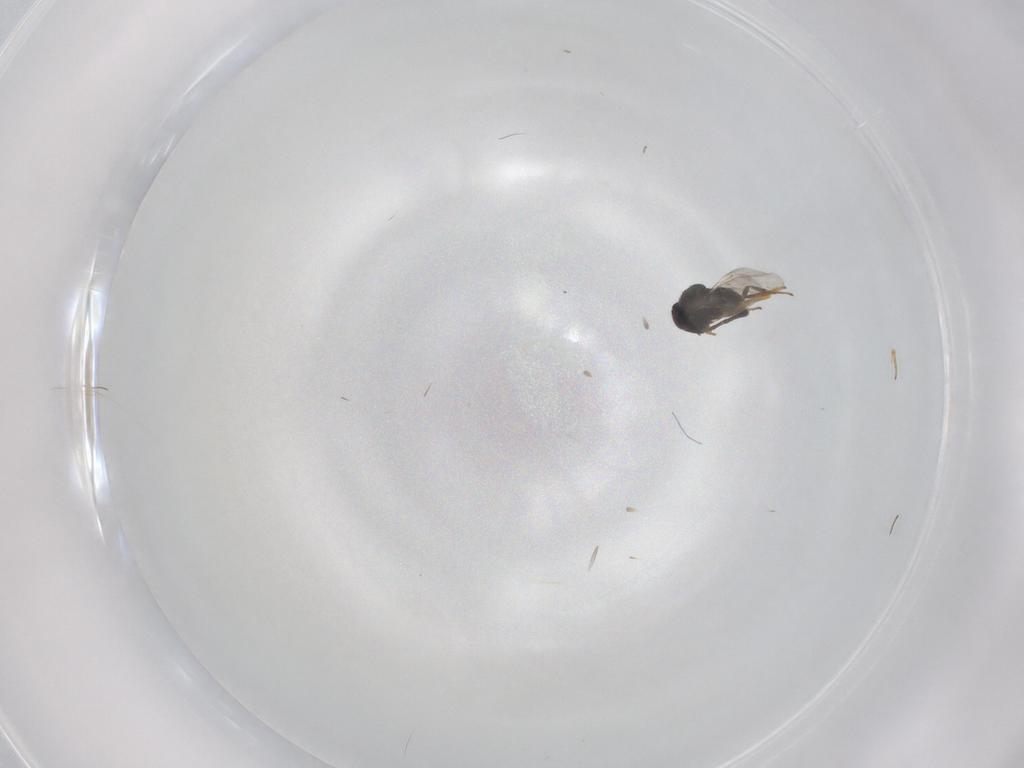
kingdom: Animalia
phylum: Arthropoda
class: Insecta
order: Hymenoptera
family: Encyrtidae
